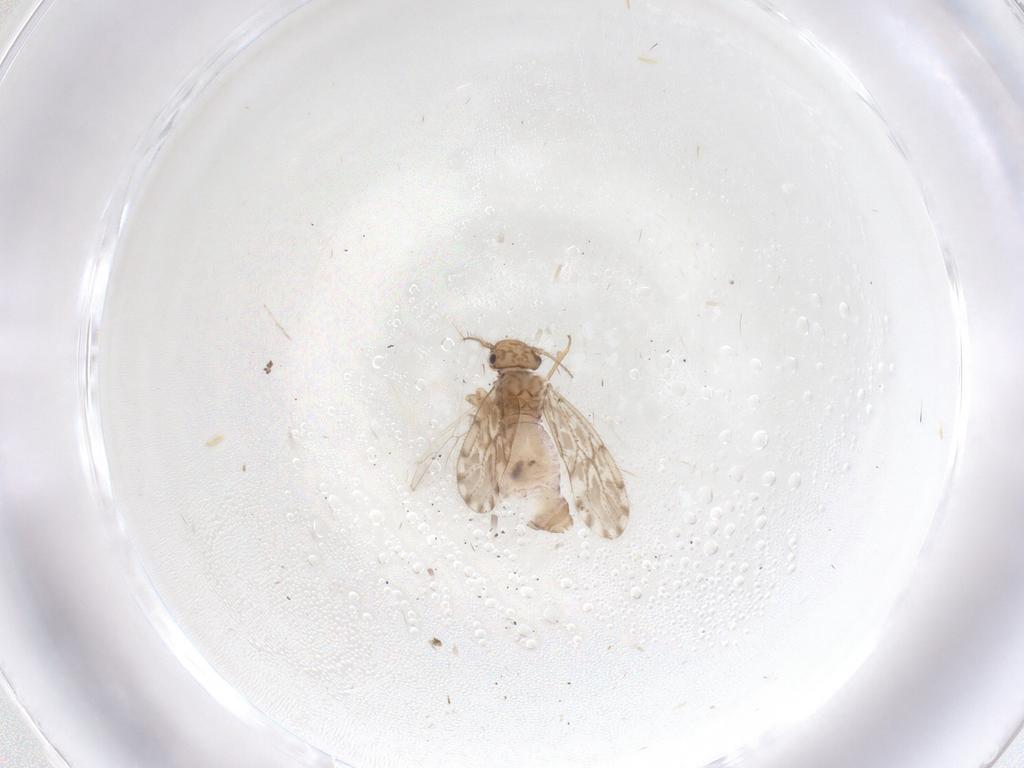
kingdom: Animalia
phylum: Arthropoda
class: Insecta
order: Psocodea
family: Ectopsocidae
